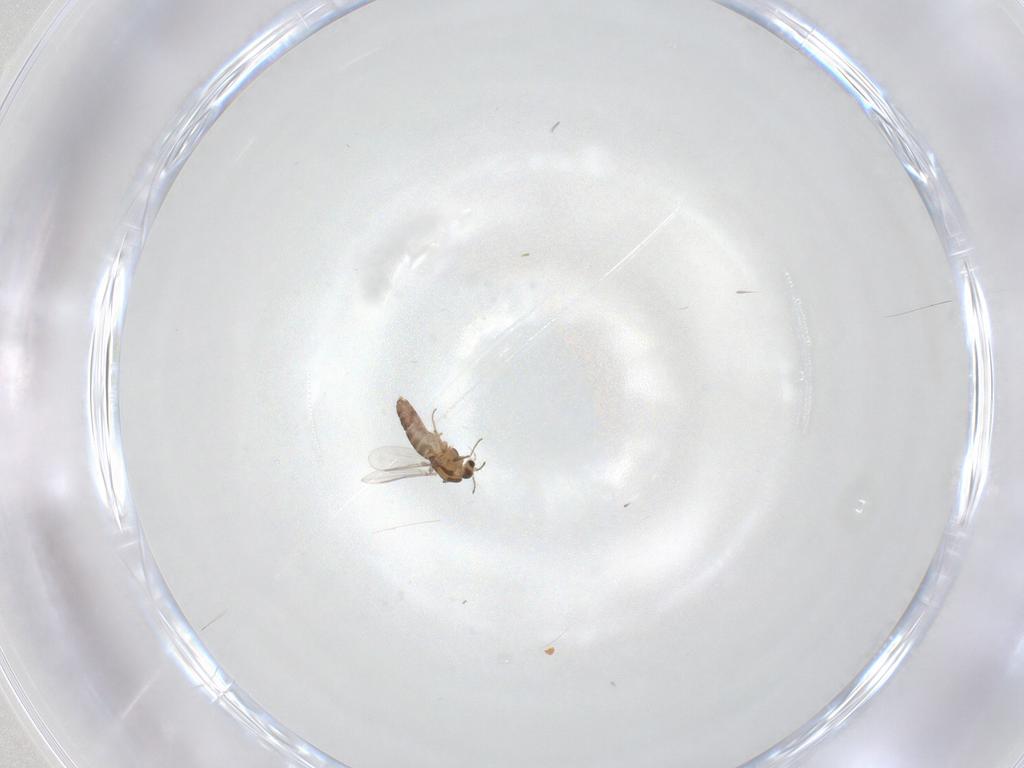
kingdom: Animalia
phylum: Arthropoda
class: Insecta
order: Diptera
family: Chironomidae
